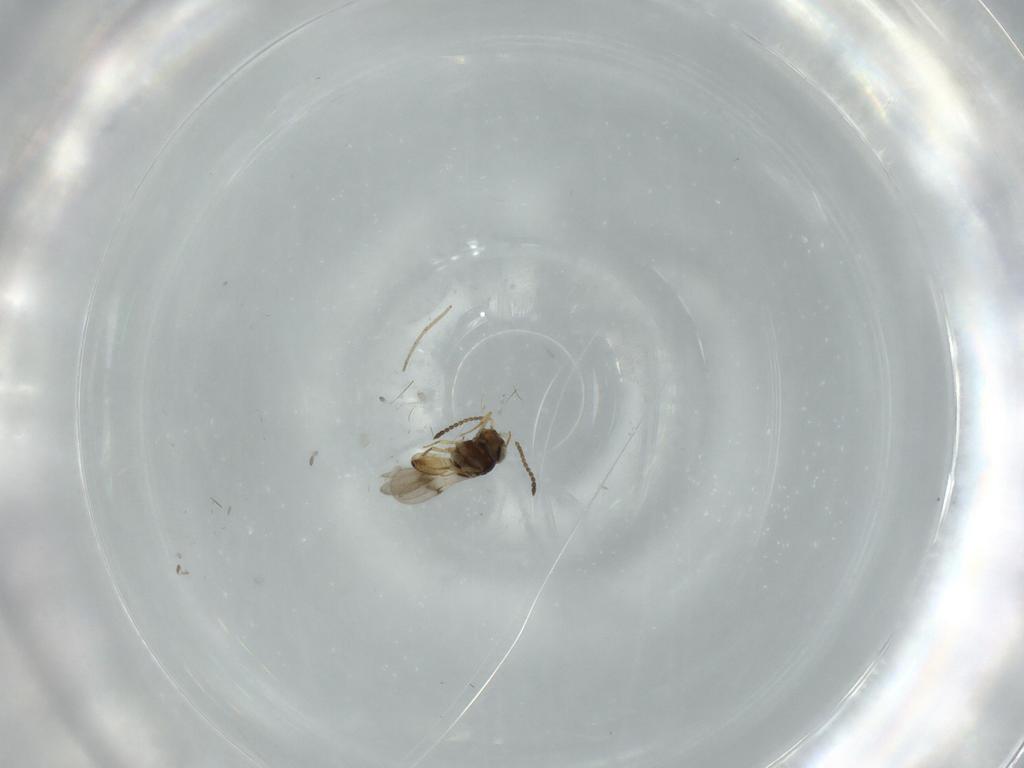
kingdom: Animalia
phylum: Arthropoda
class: Insecta
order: Hymenoptera
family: Scelionidae
